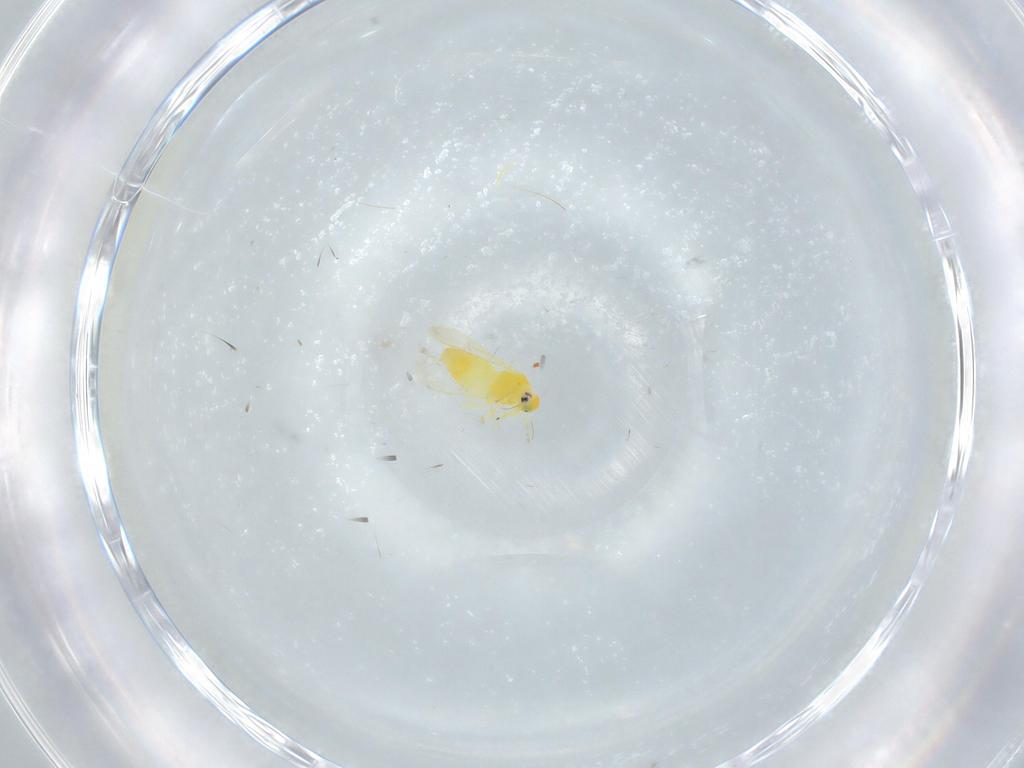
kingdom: Animalia
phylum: Arthropoda
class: Insecta
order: Hemiptera
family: Aleyrodidae
